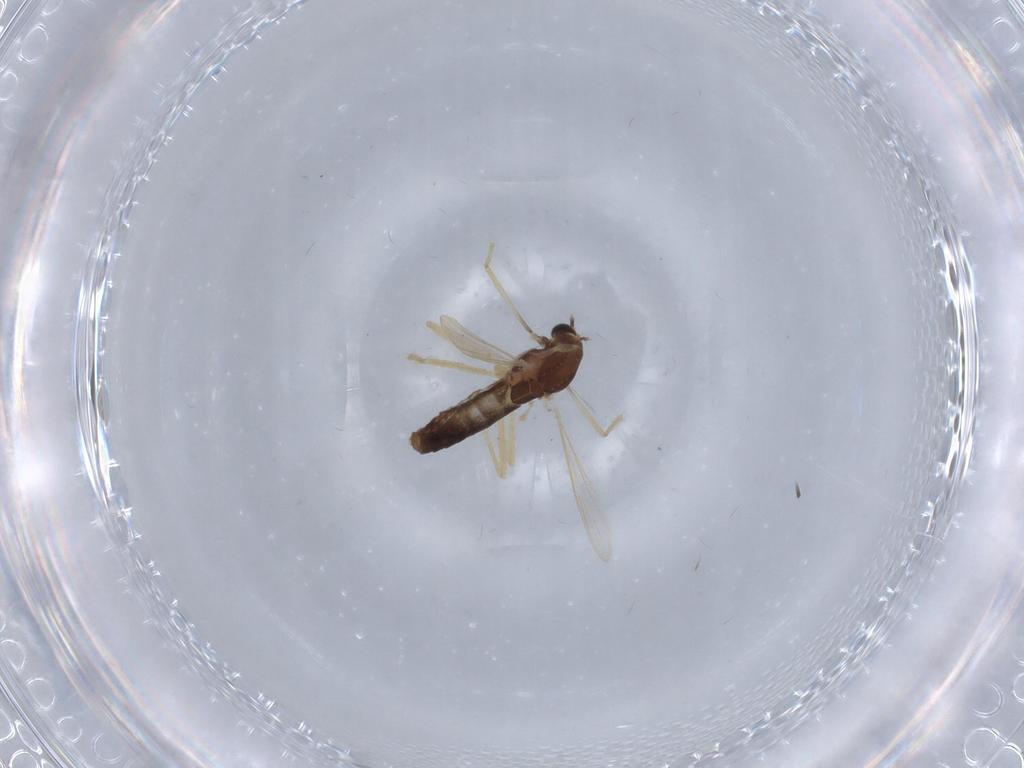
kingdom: Animalia
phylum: Arthropoda
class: Insecta
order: Diptera
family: Chironomidae
